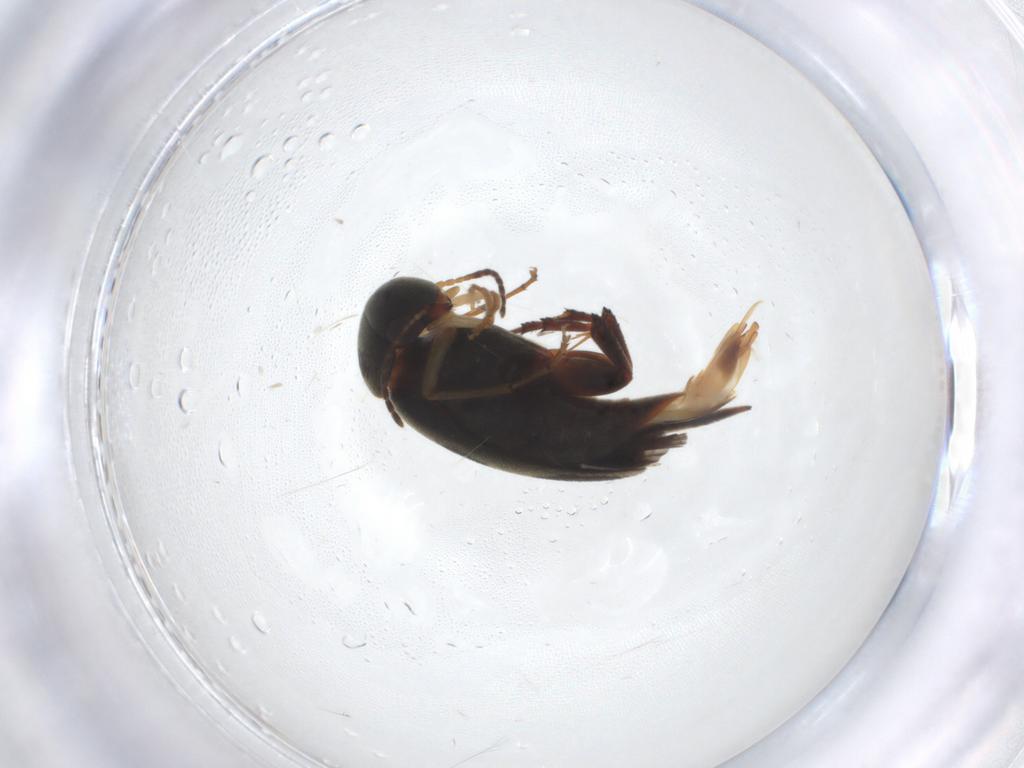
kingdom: Animalia
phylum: Arthropoda
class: Insecta
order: Coleoptera
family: Mordellidae
